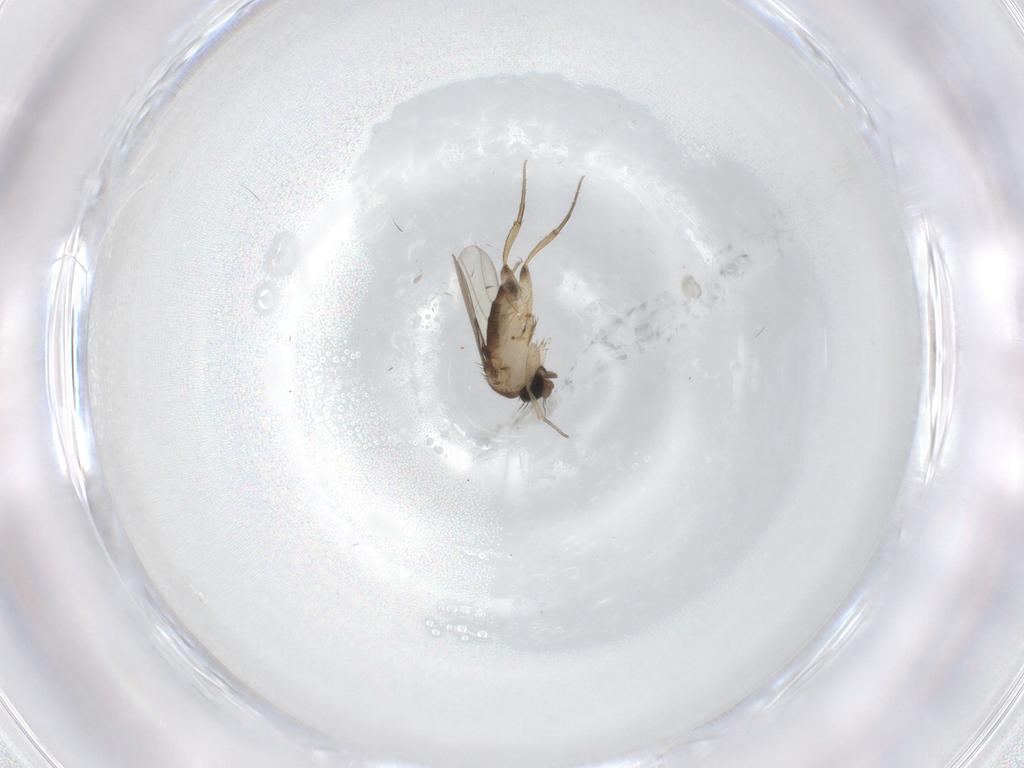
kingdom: Animalia
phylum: Arthropoda
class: Insecta
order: Diptera
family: Phoridae
